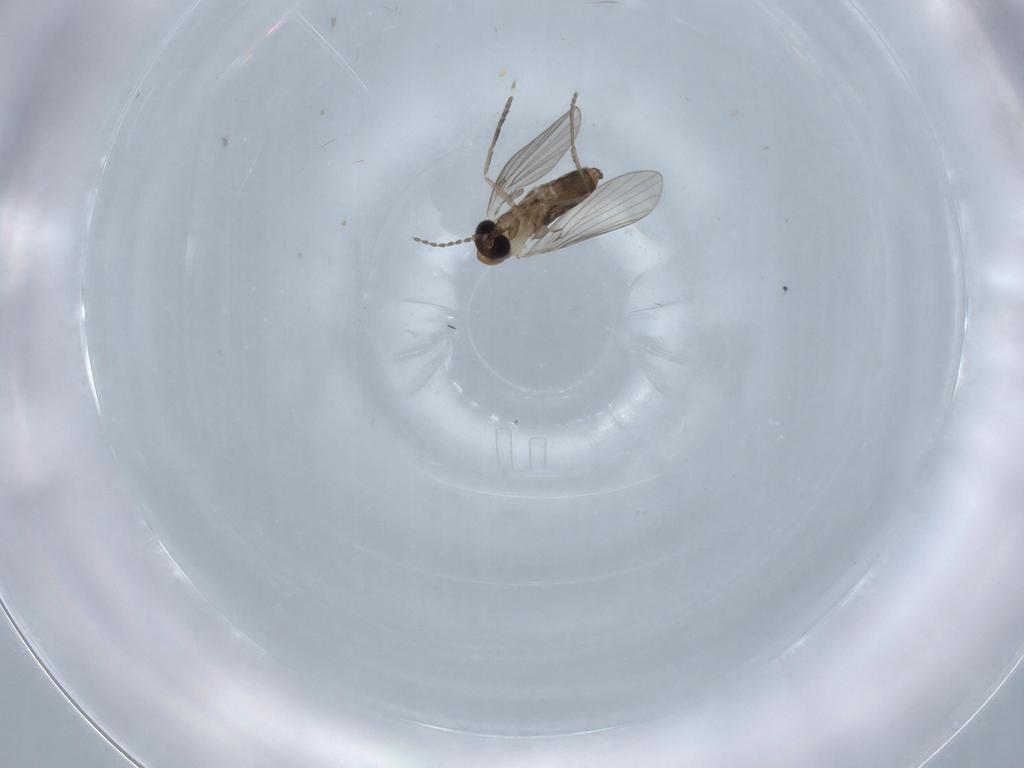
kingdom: Animalia
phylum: Arthropoda
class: Insecta
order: Diptera
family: Psychodidae
